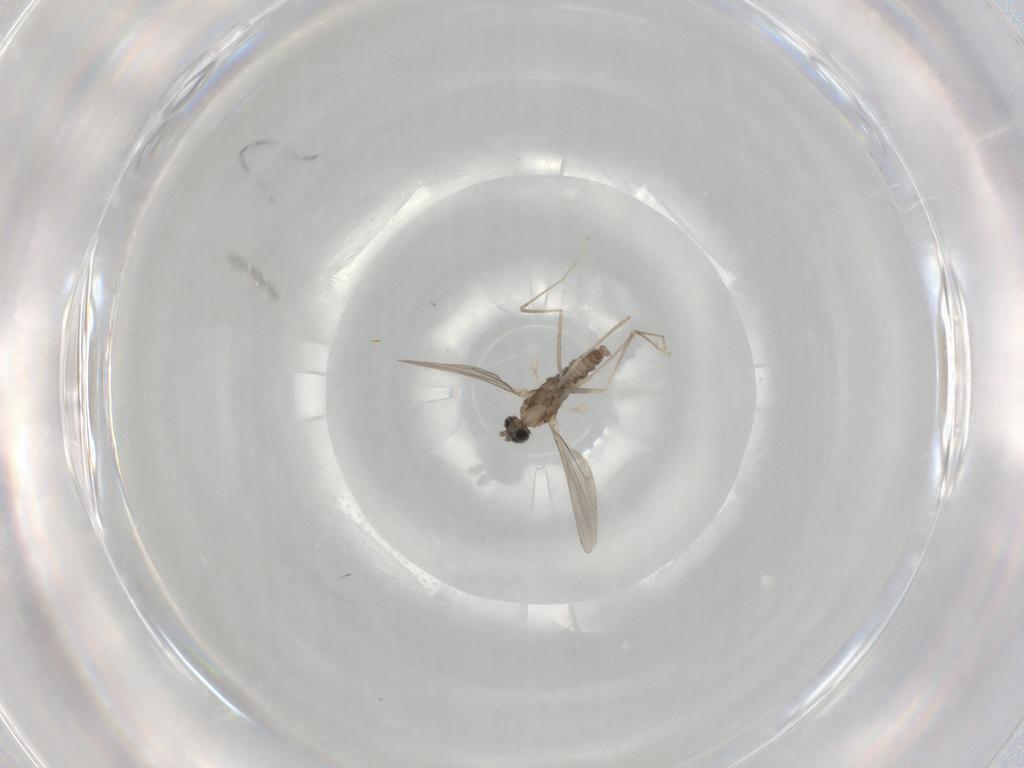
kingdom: Animalia
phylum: Arthropoda
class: Insecta
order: Diptera
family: Cecidomyiidae
